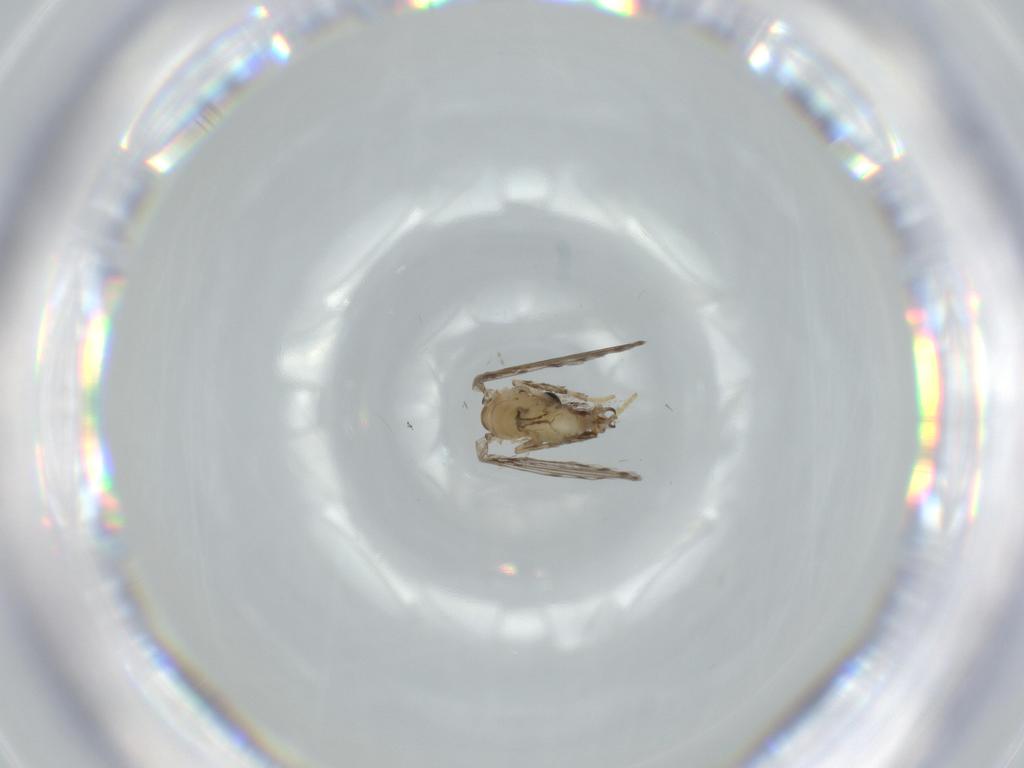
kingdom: Animalia
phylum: Arthropoda
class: Insecta
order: Diptera
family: Psychodidae
